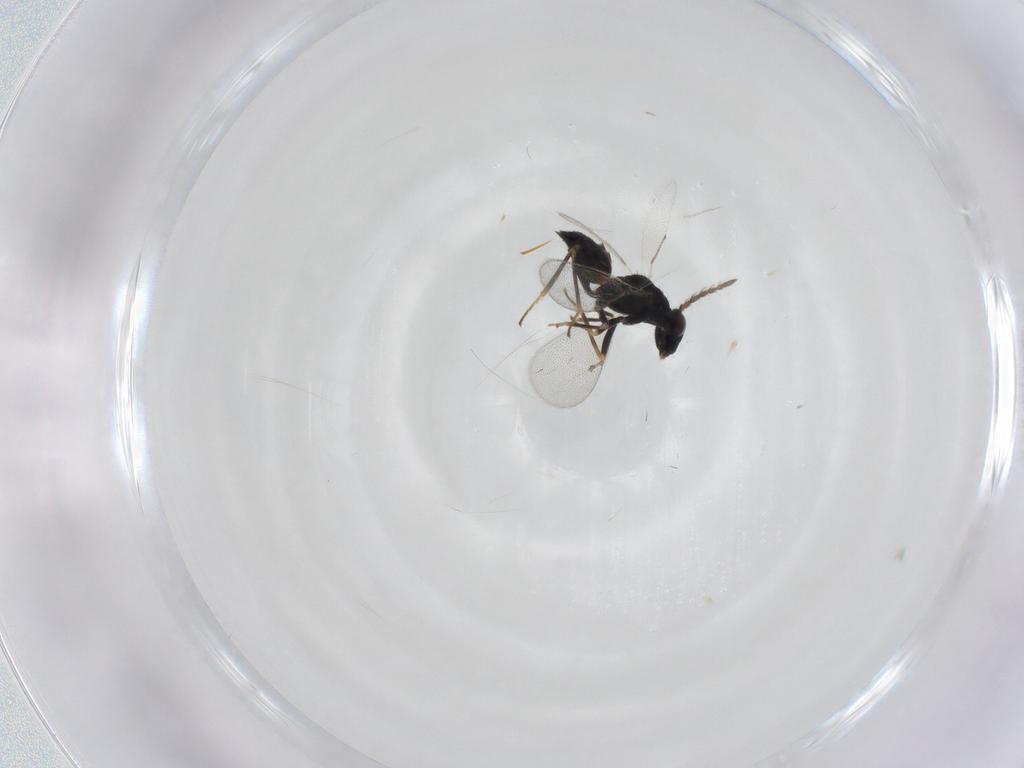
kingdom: Animalia
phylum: Arthropoda
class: Insecta
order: Hymenoptera
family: Eulophidae
